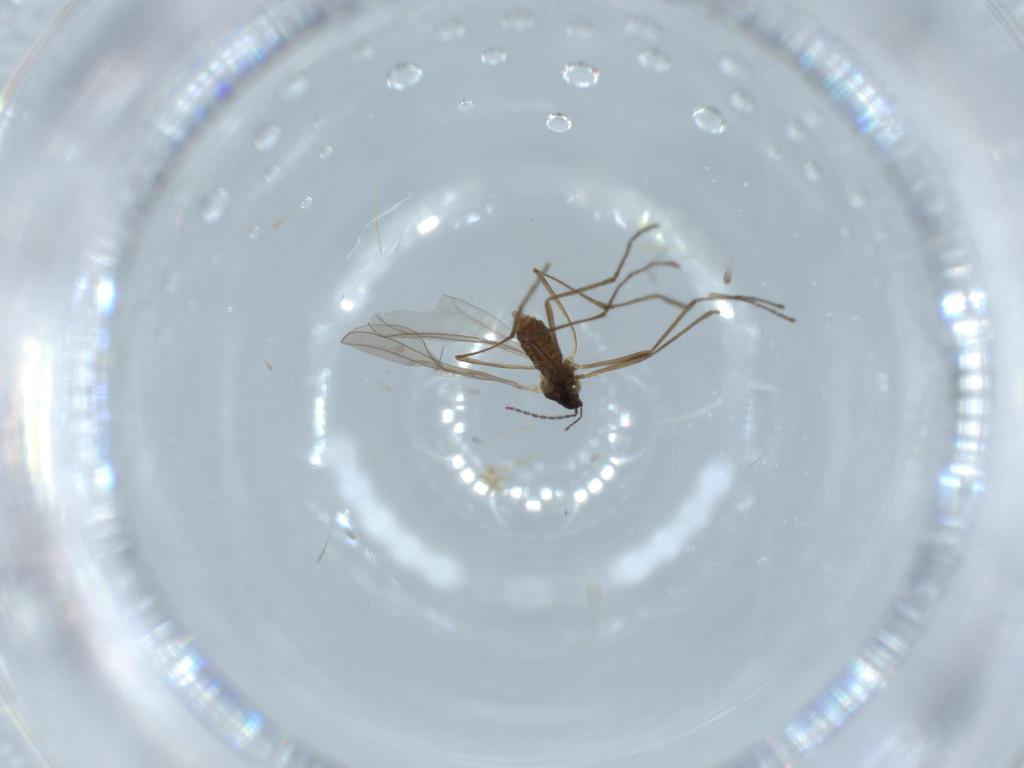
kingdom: Animalia
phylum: Arthropoda
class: Insecta
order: Diptera
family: Cecidomyiidae
